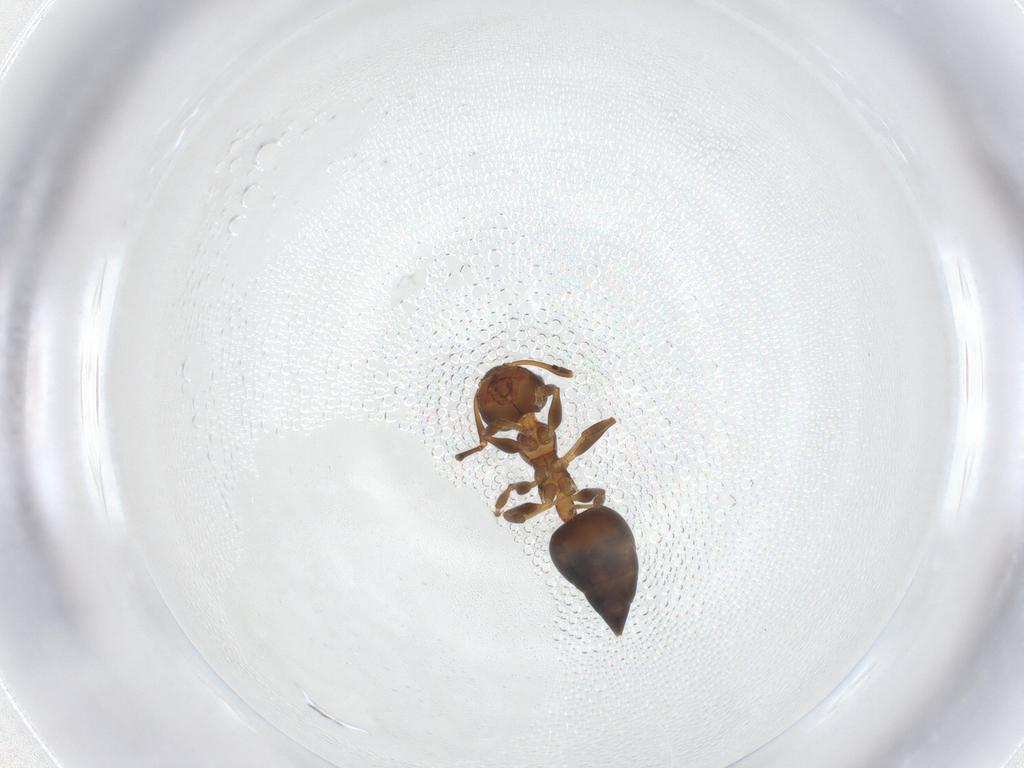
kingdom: Animalia
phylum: Arthropoda
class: Insecta
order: Hymenoptera
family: Formicidae
